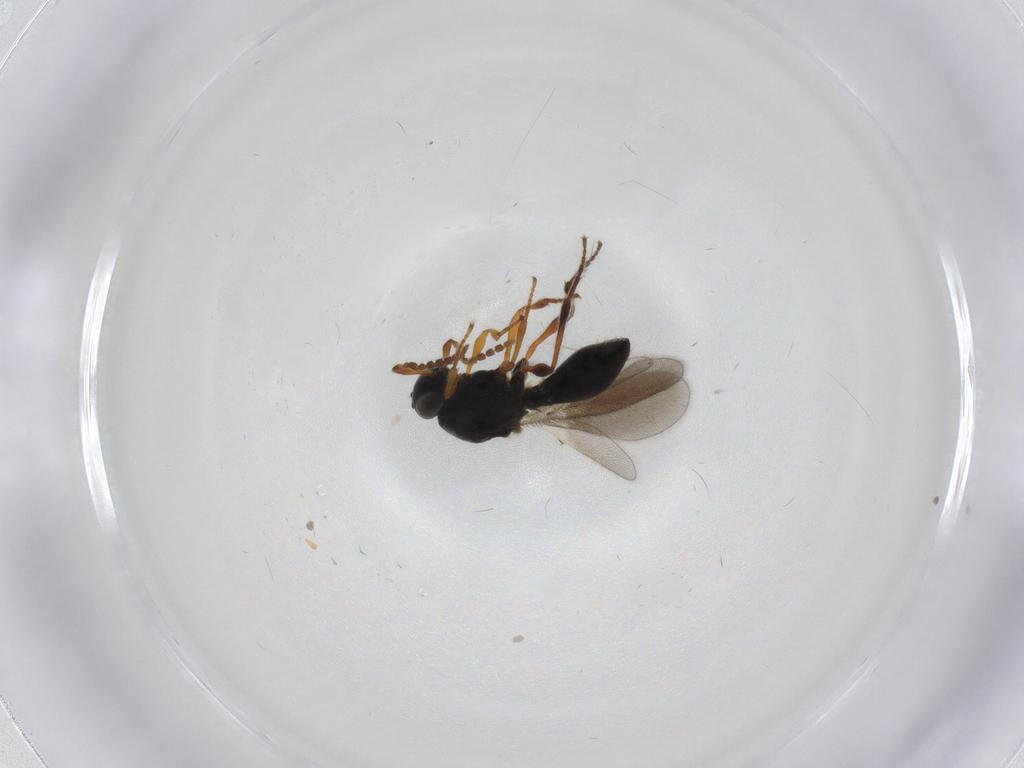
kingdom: Animalia
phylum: Arthropoda
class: Insecta
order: Hymenoptera
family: Platygastridae
